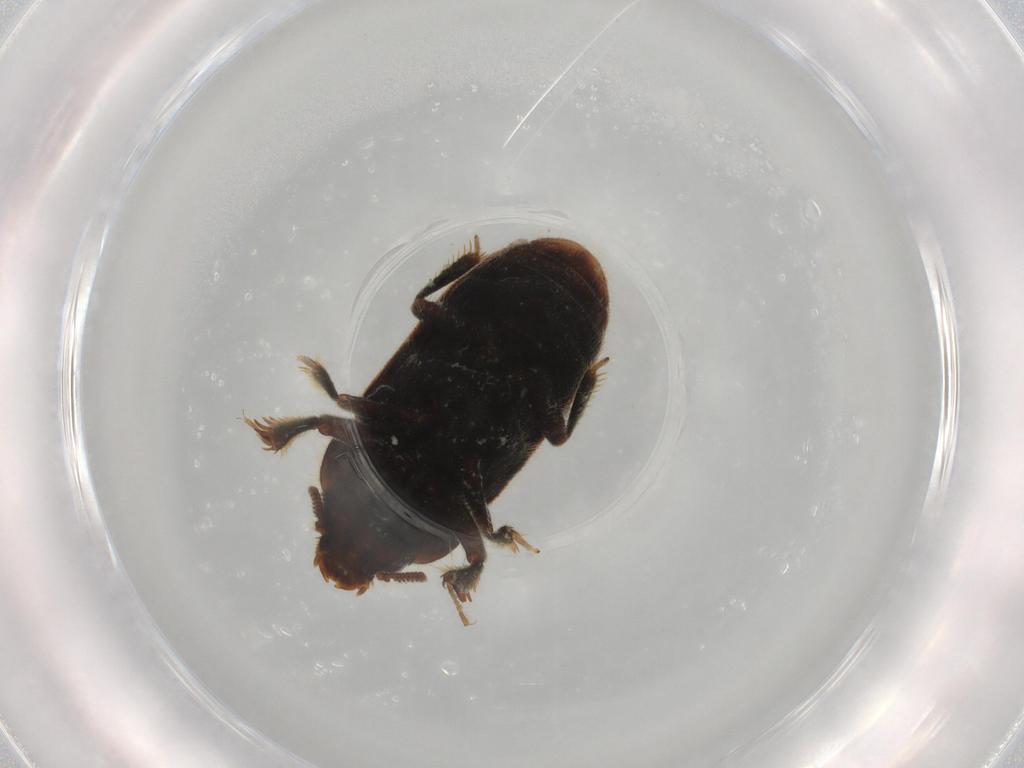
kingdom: Animalia
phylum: Arthropoda
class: Insecta
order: Coleoptera
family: Heteroceridae
